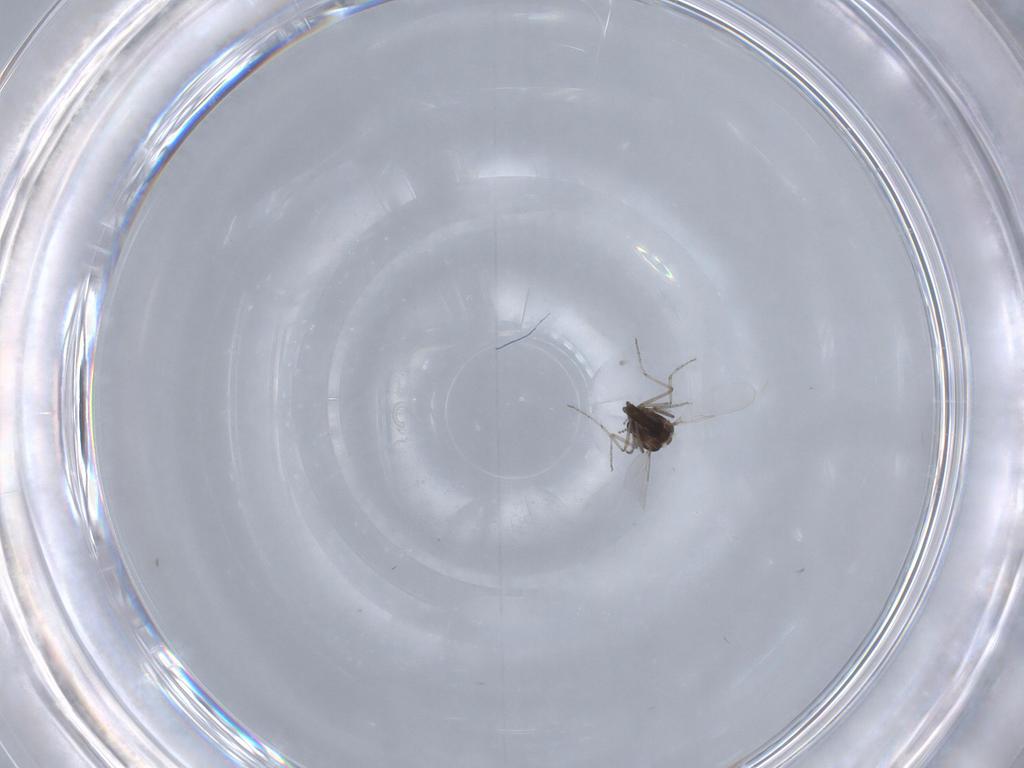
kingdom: Animalia
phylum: Arthropoda
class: Insecta
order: Diptera
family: Ceratopogonidae
